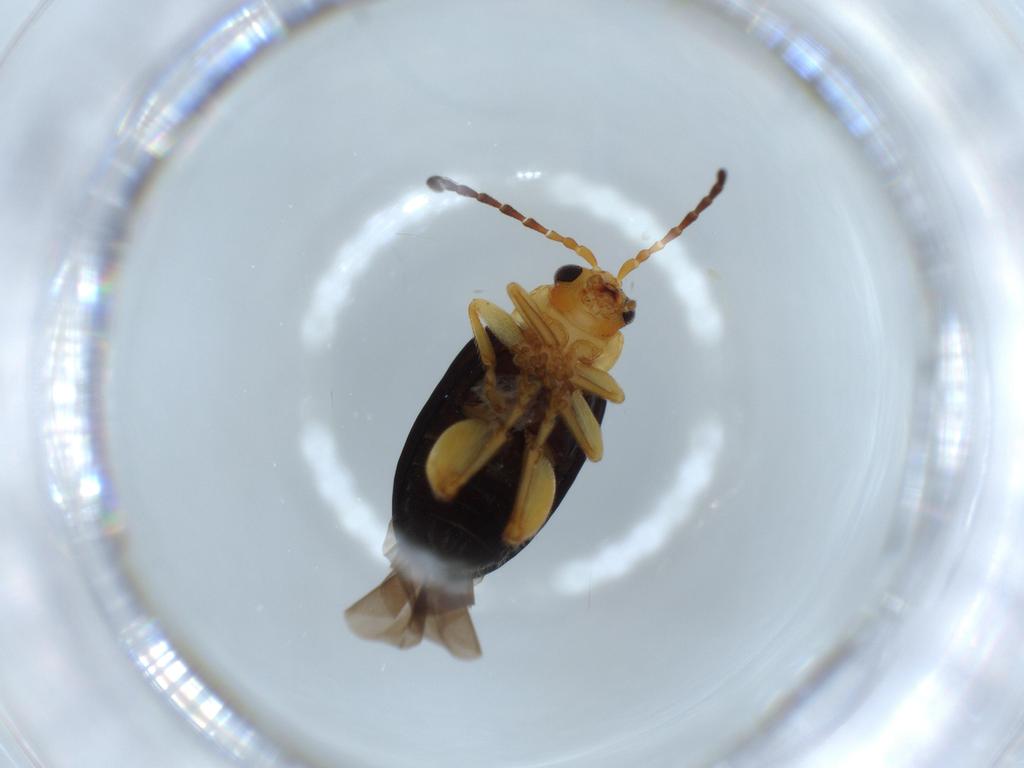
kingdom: Animalia
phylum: Arthropoda
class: Insecta
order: Coleoptera
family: Chrysomelidae
